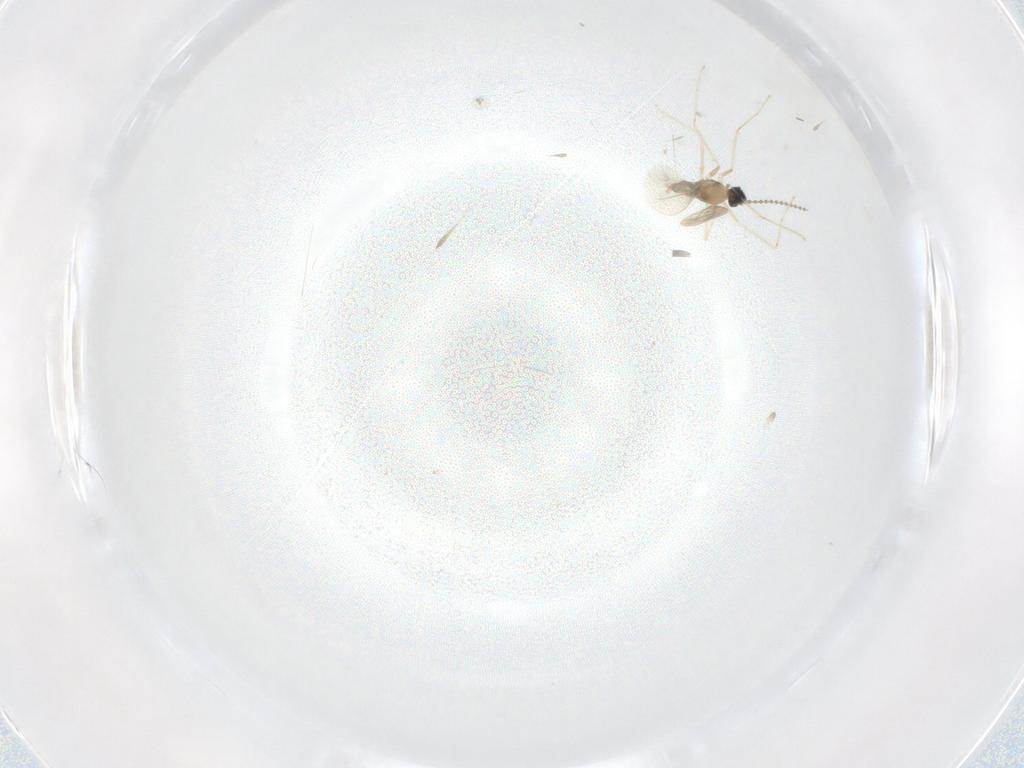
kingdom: Animalia
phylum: Arthropoda
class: Insecta
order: Diptera
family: Cecidomyiidae
